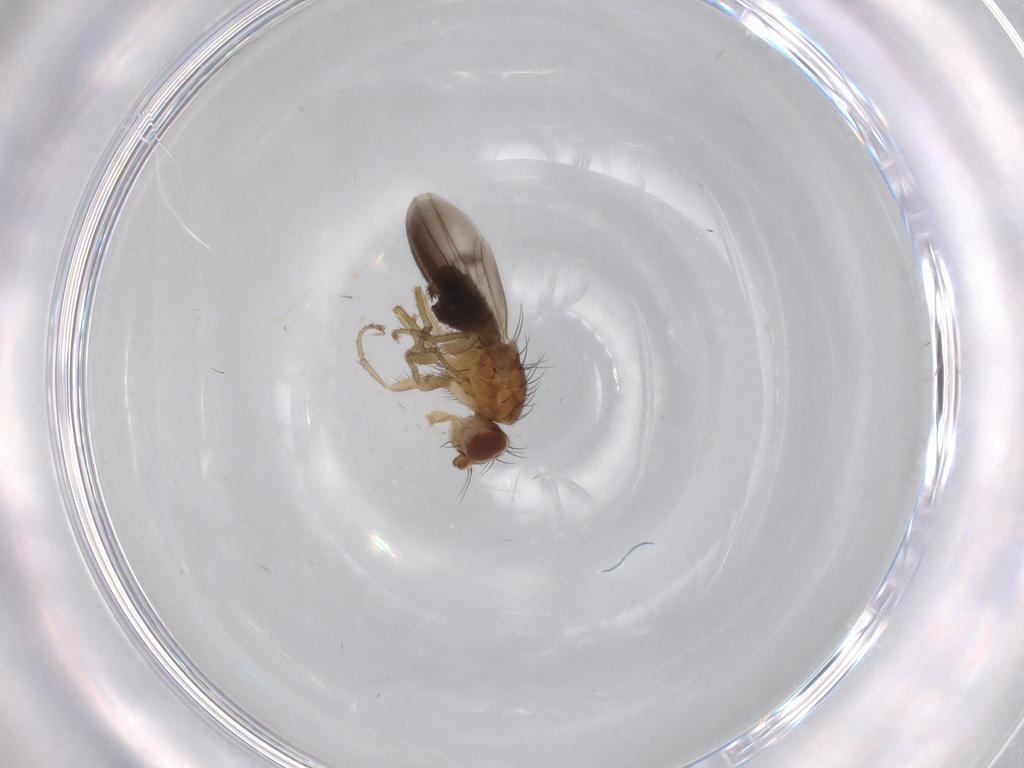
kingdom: Animalia
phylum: Arthropoda
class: Insecta
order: Diptera
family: Heleomyzidae
